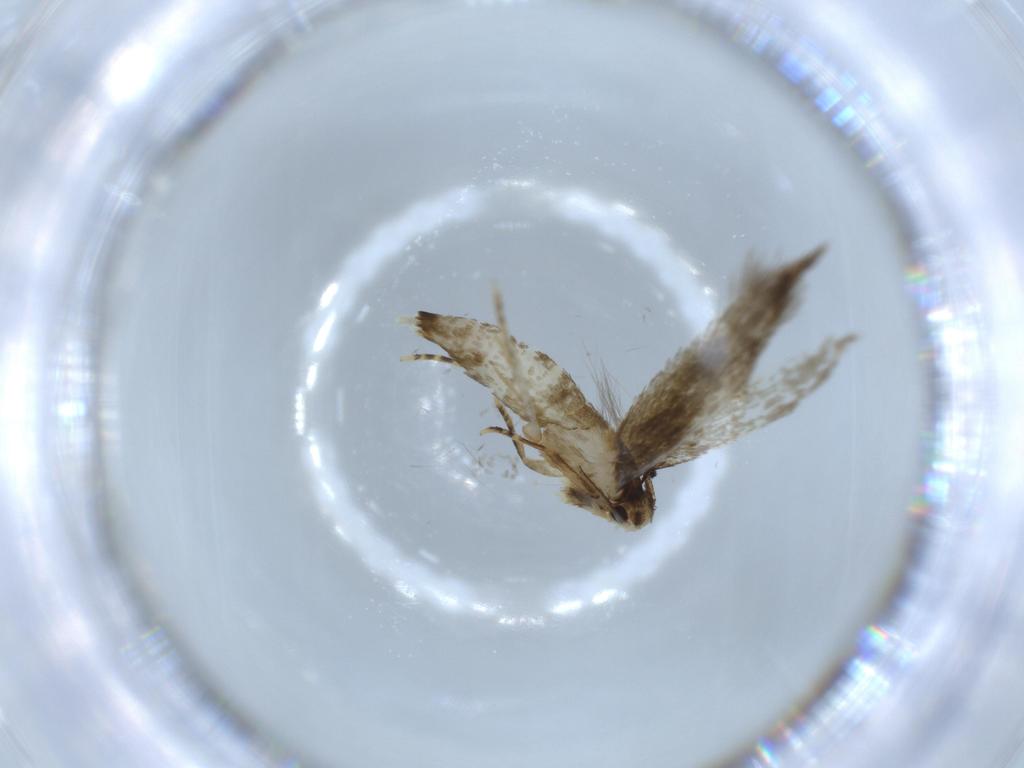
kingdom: Animalia
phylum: Arthropoda
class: Insecta
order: Lepidoptera
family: Tineidae
